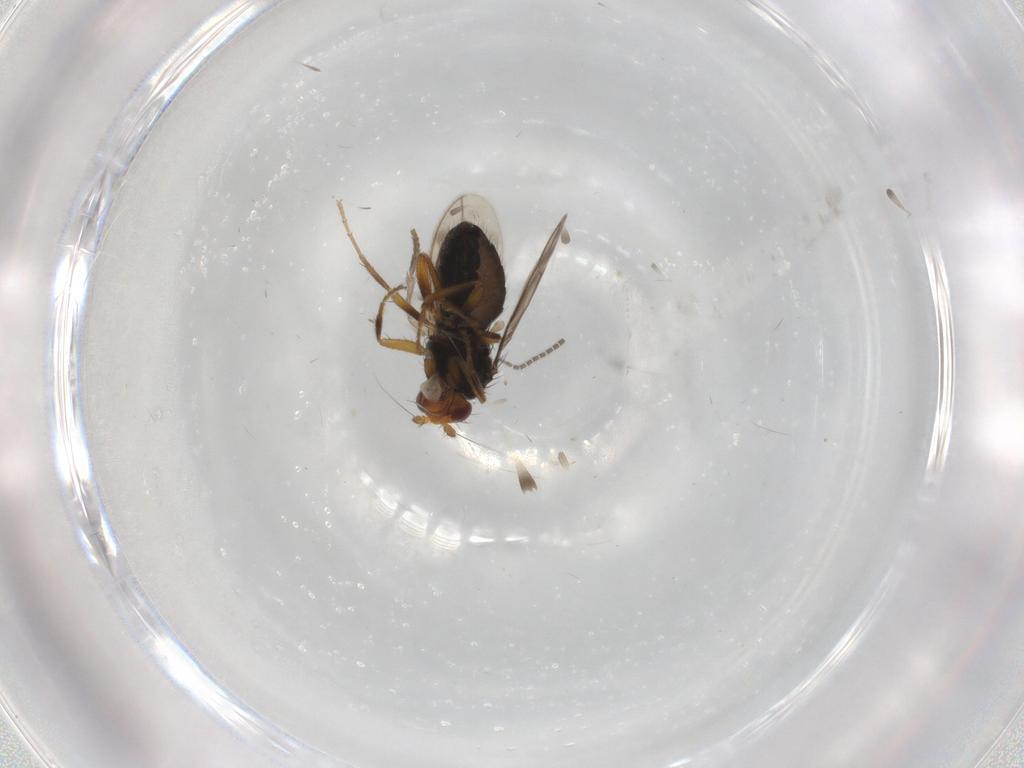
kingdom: Animalia
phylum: Arthropoda
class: Insecta
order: Diptera
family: Sphaeroceridae
